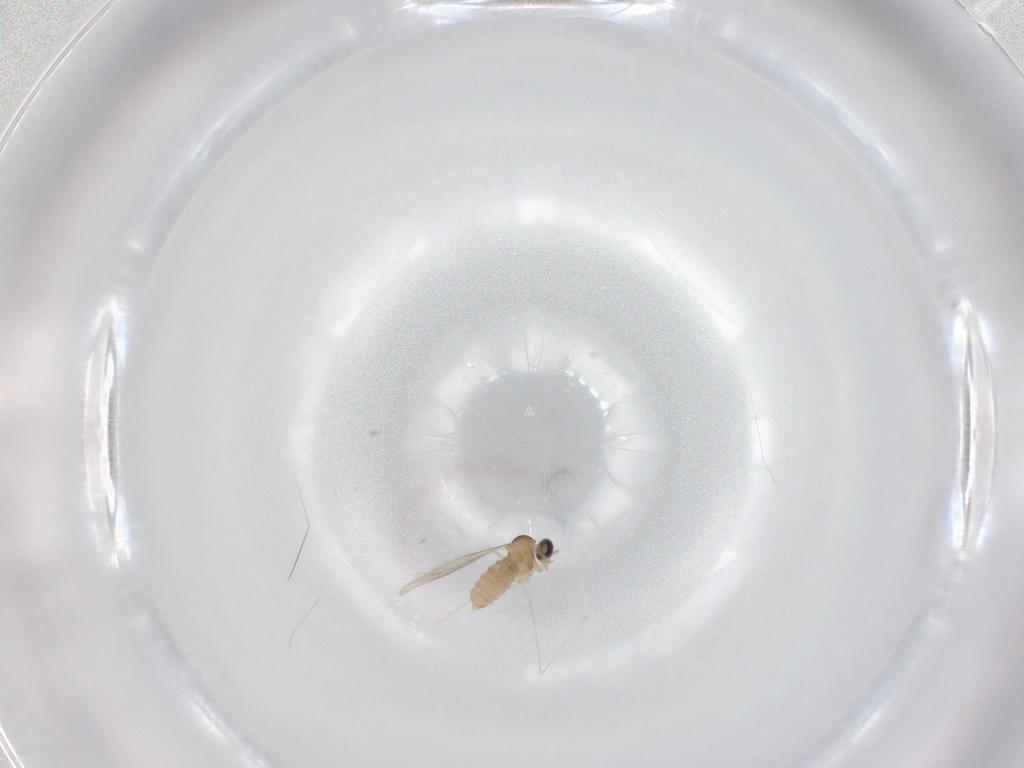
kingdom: Animalia
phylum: Arthropoda
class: Insecta
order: Diptera
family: Cecidomyiidae
